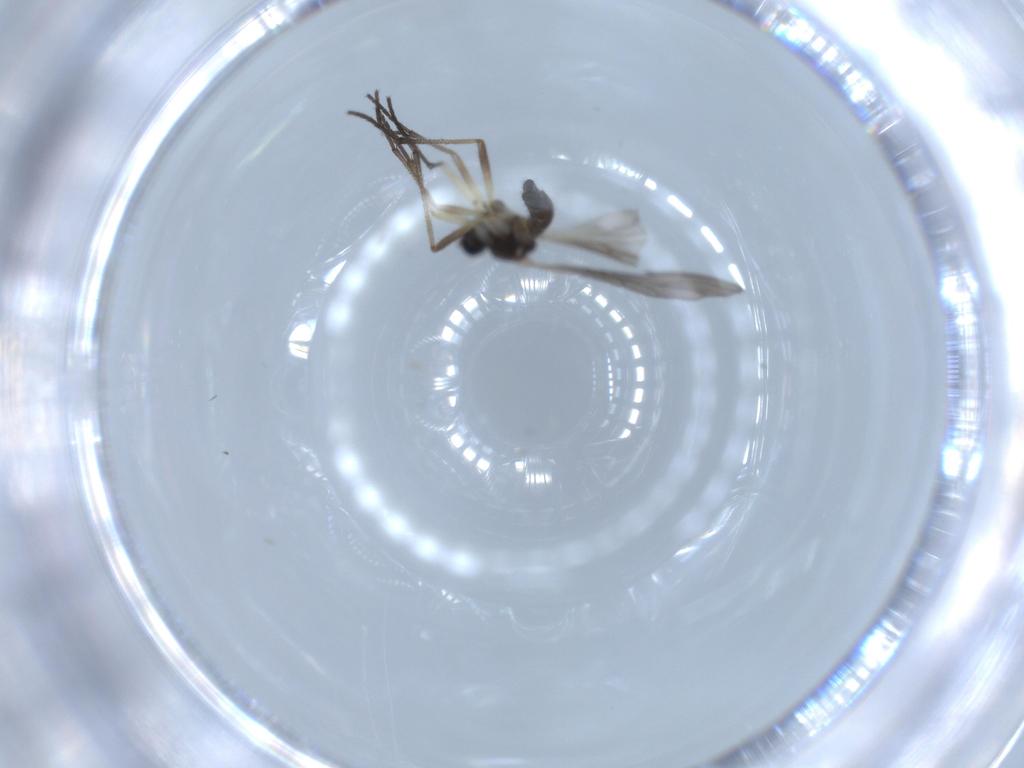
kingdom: Animalia
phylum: Arthropoda
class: Insecta
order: Diptera
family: Sciaridae
